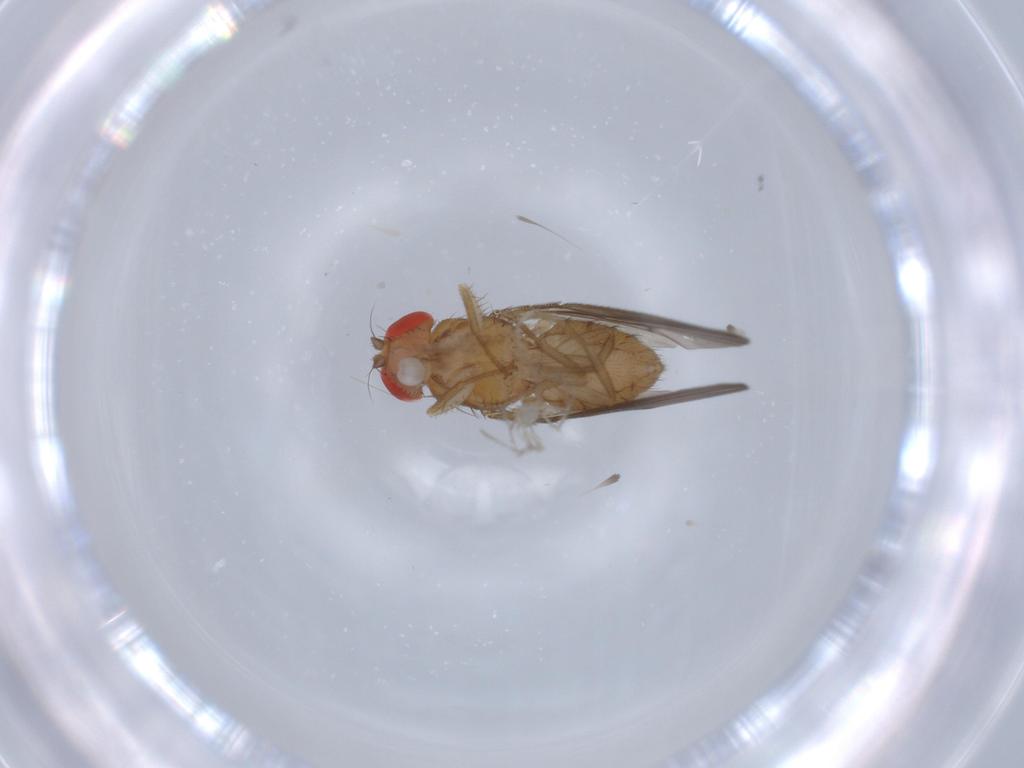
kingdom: Animalia
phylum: Arthropoda
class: Insecta
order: Diptera
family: Drosophilidae
